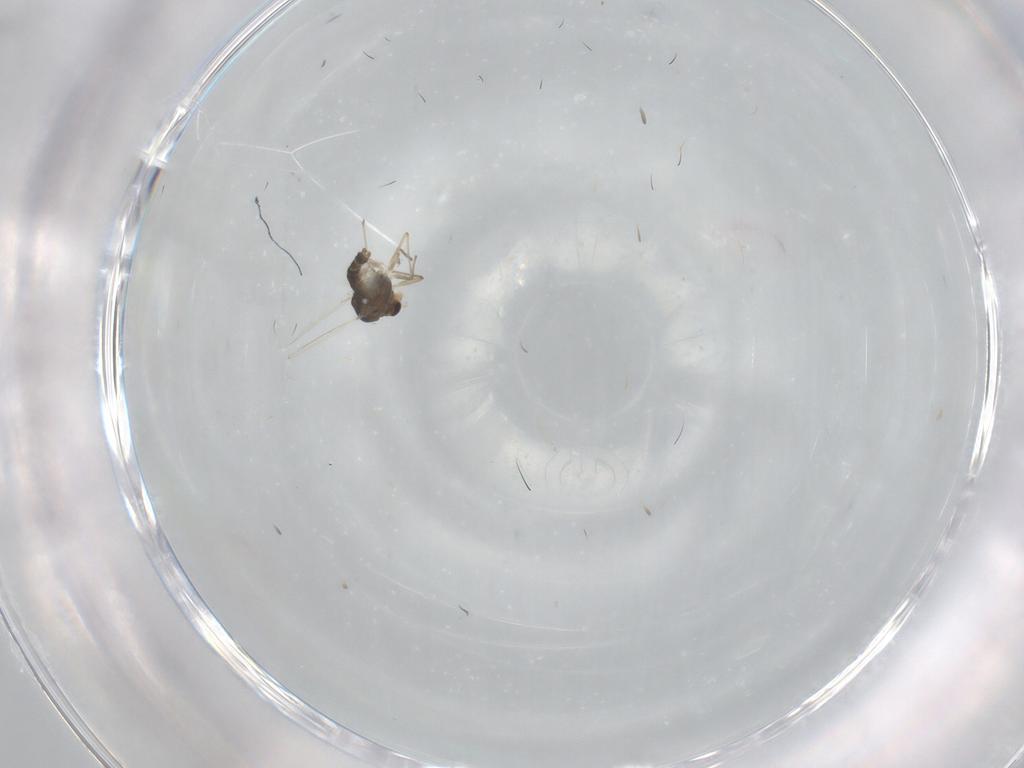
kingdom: Animalia
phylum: Arthropoda
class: Insecta
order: Diptera
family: Chironomidae
